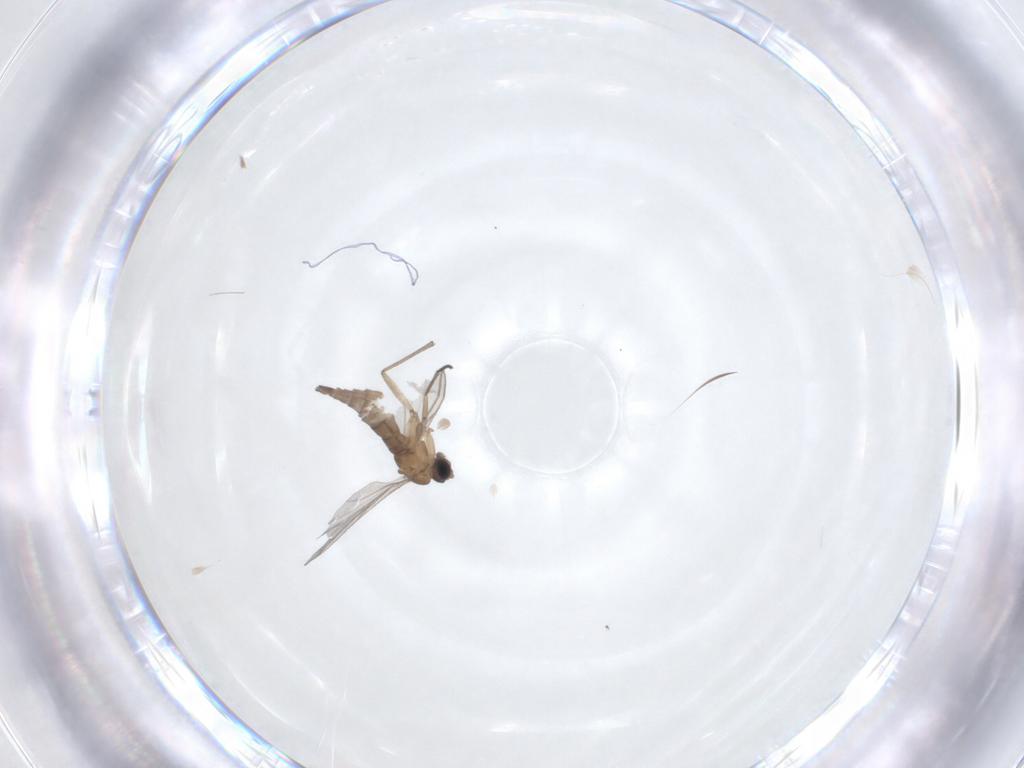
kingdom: Animalia
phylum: Arthropoda
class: Insecta
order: Diptera
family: Sciaridae
